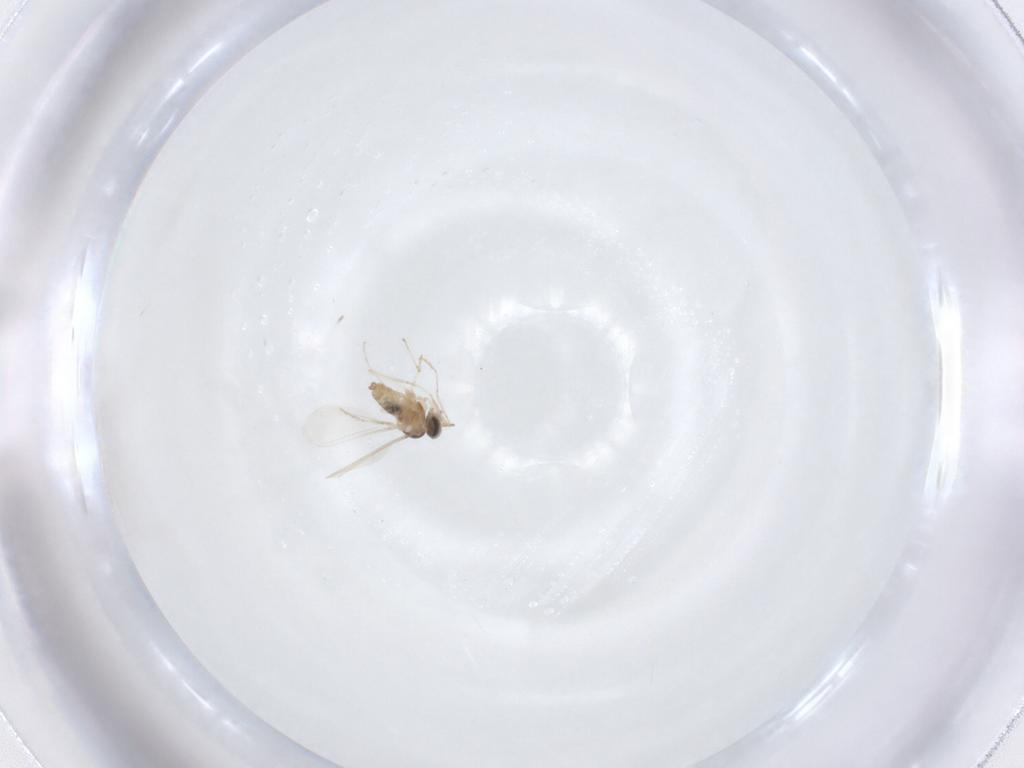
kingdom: Animalia
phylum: Arthropoda
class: Insecta
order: Diptera
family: Cecidomyiidae
